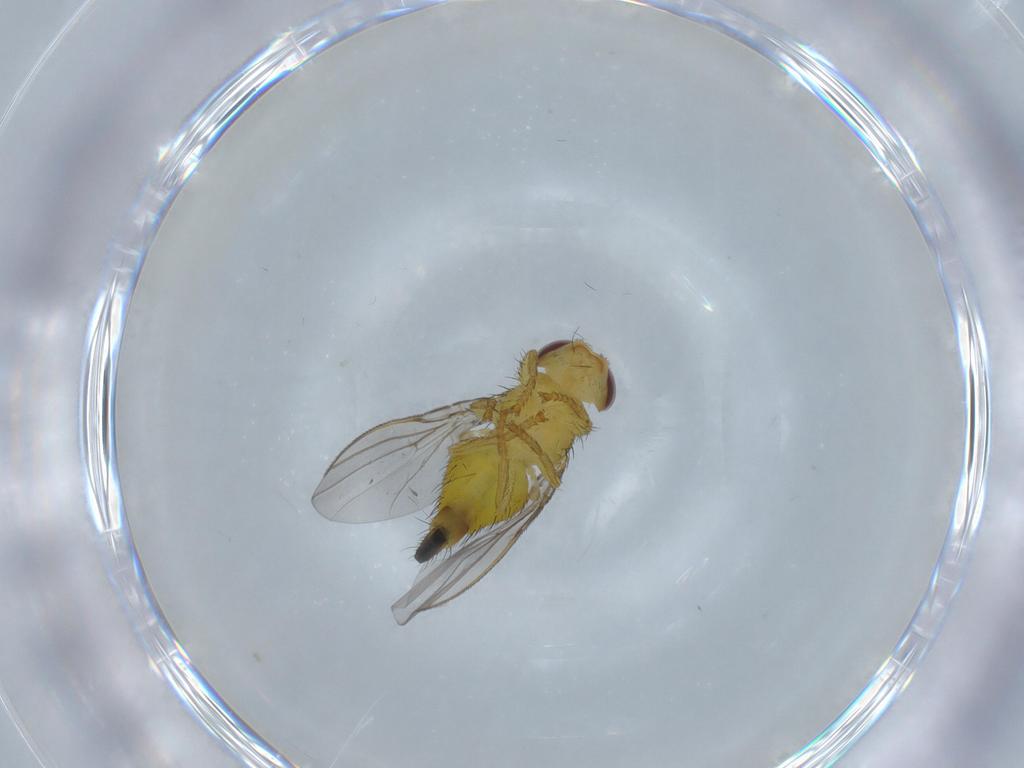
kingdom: Animalia
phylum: Arthropoda
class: Insecta
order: Diptera
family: Fergusoninidae
